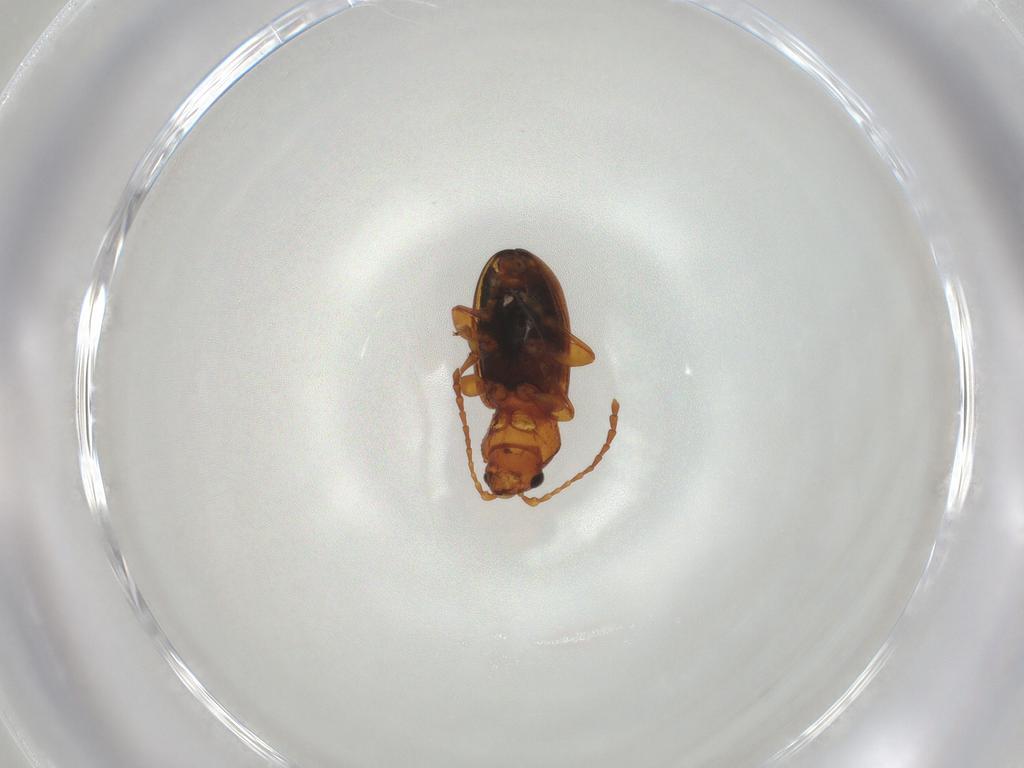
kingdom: Animalia
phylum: Arthropoda
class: Insecta
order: Coleoptera
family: Chrysomelidae
